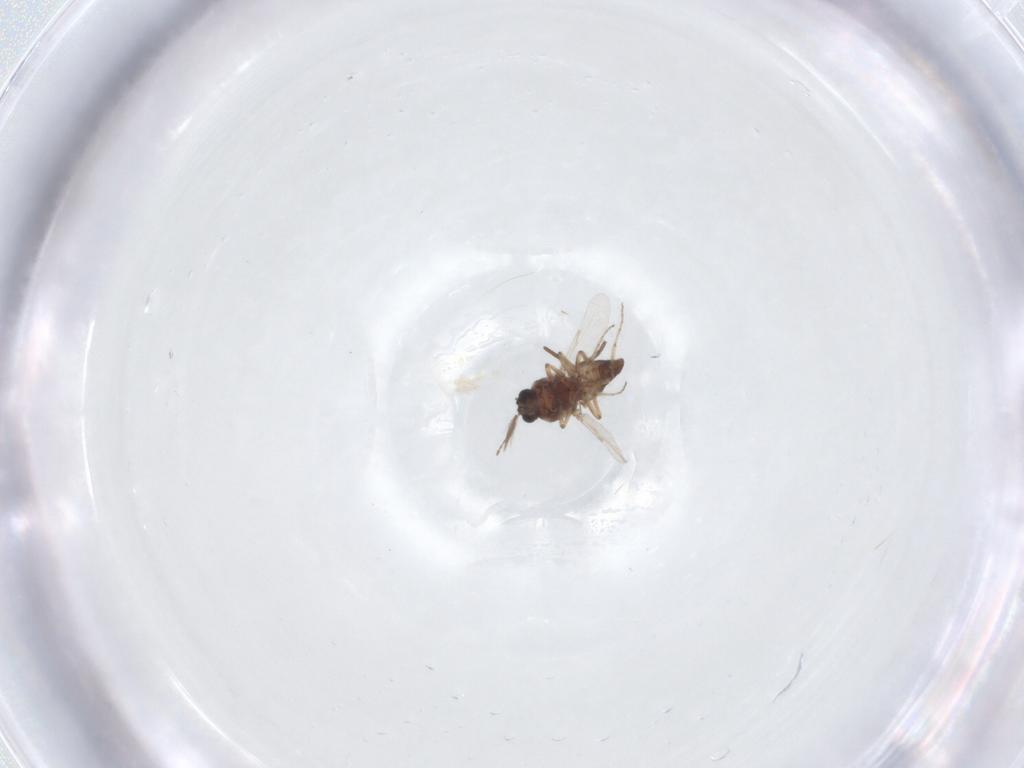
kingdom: Animalia
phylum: Arthropoda
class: Insecta
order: Diptera
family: Ceratopogonidae
